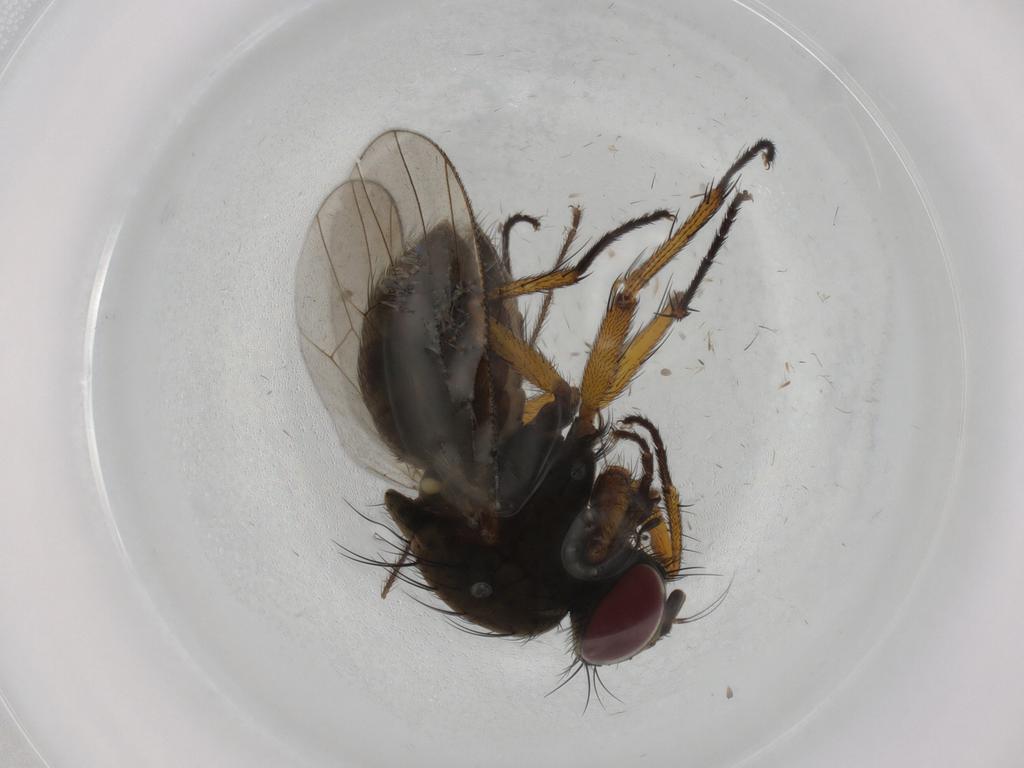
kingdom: Animalia
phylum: Arthropoda
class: Insecta
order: Diptera
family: Muscidae
